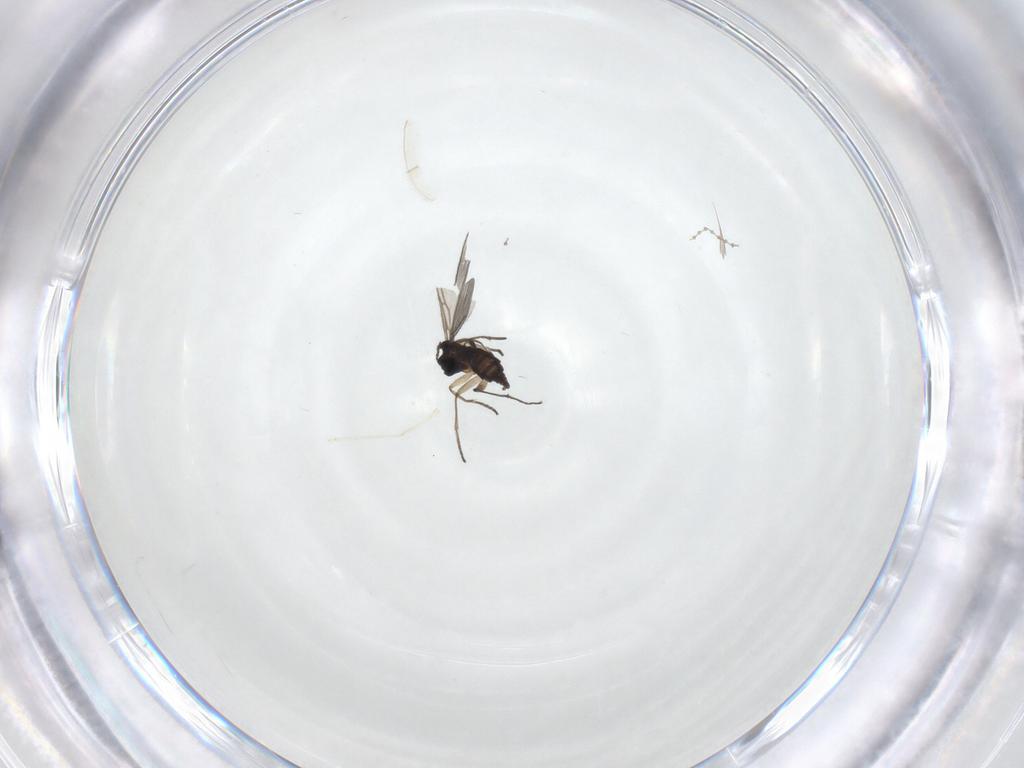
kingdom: Animalia
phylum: Arthropoda
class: Insecta
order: Diptera
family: Cecidomyiidae
